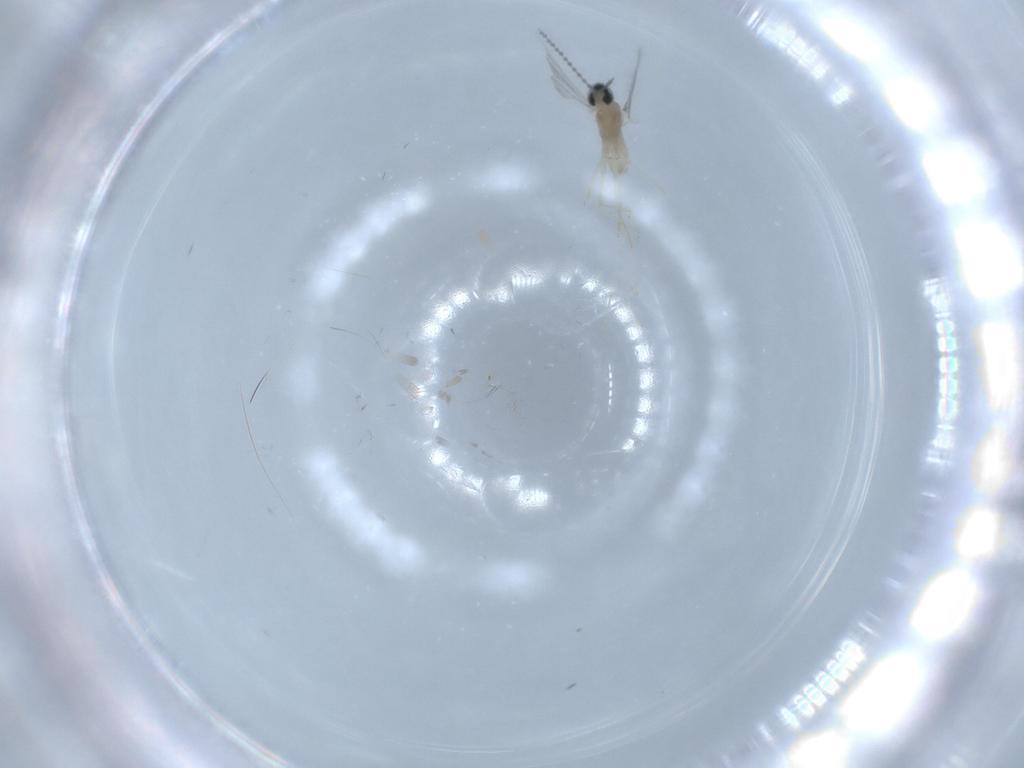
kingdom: Animalia
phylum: Arthropoda
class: Insecta
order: Diptera
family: Cecidomyiidae
